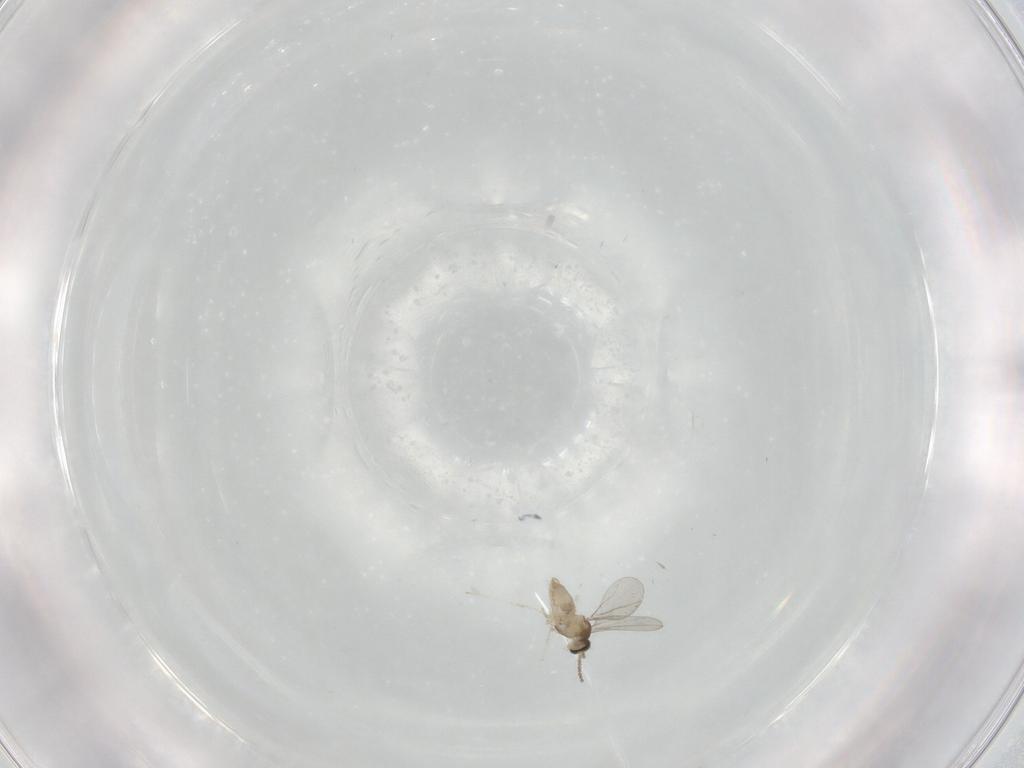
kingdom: Animalia
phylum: Arthropoda
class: Insecta
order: Diptera
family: Cecidomyiidae
